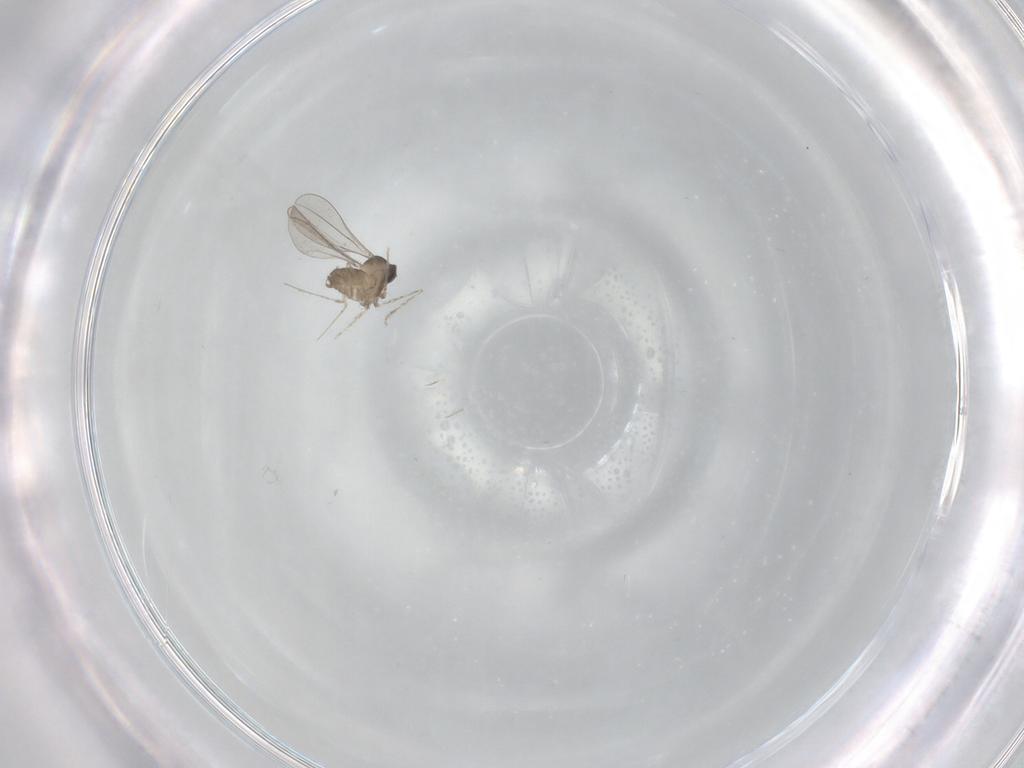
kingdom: Animalia
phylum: Arthropoda
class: Insecta
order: Diptera
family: Cecidomyiidae
